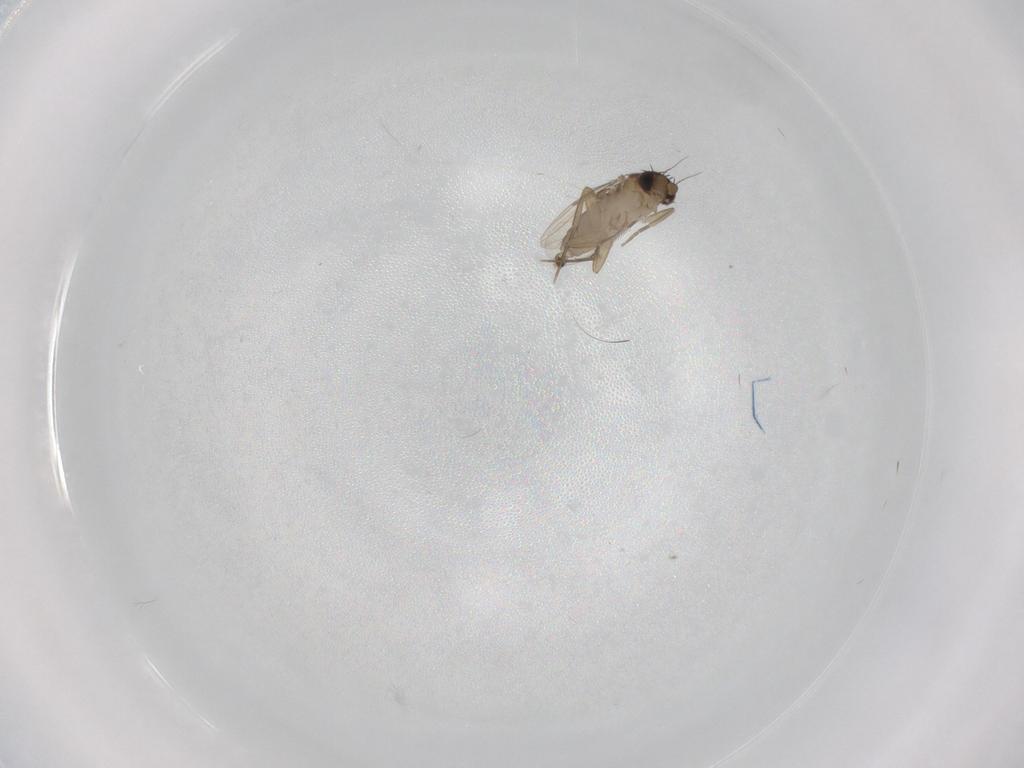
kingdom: Animalia
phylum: Arthropoda
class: Insecta
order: Diptera
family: Phoridae
